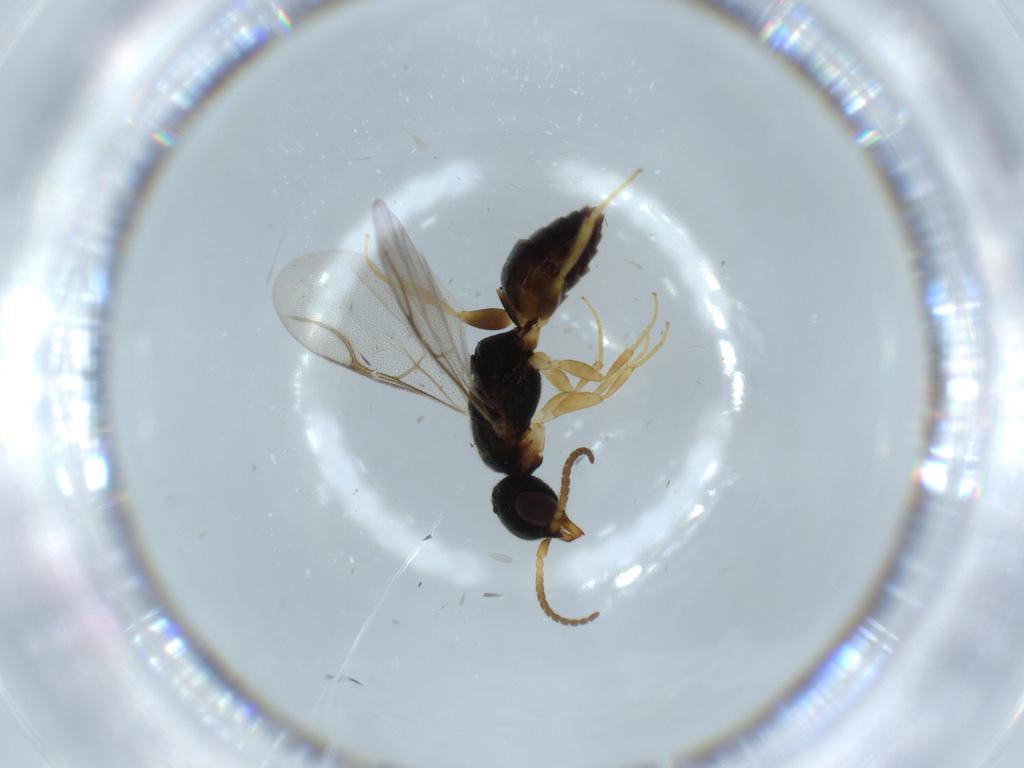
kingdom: Animalia
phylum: Arthropoda
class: Insecta
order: Hymenoptera
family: Bethylidae
